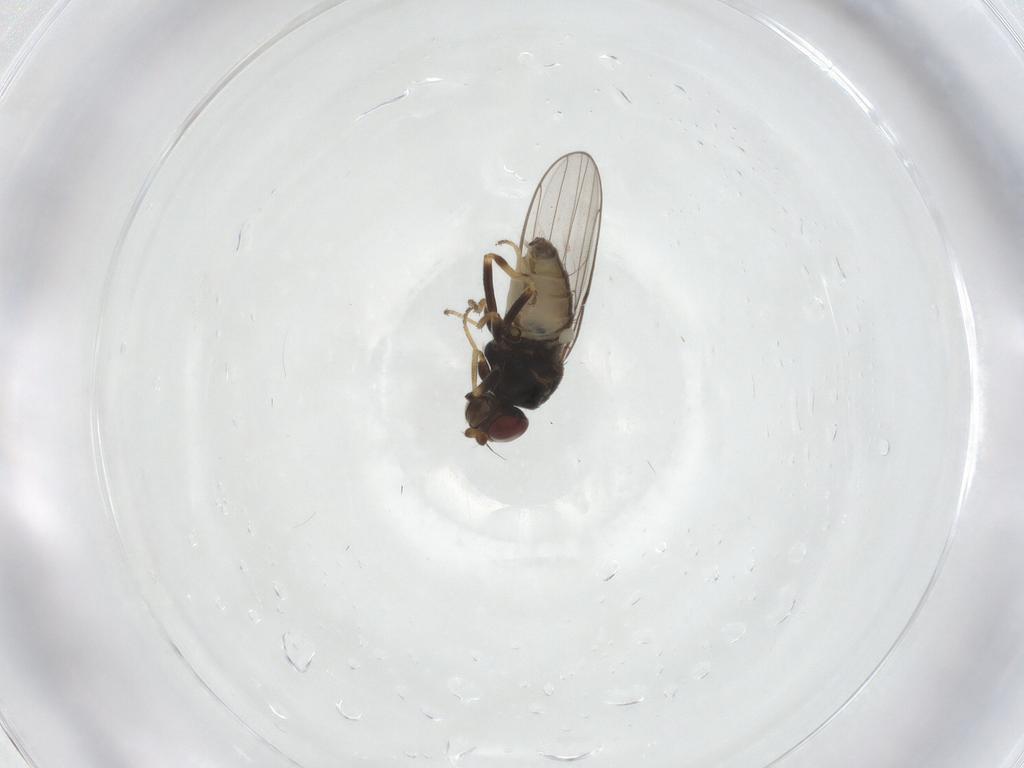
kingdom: Animalia
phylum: Arthropoda
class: Insecta
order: Diptera
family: Chloropidae
